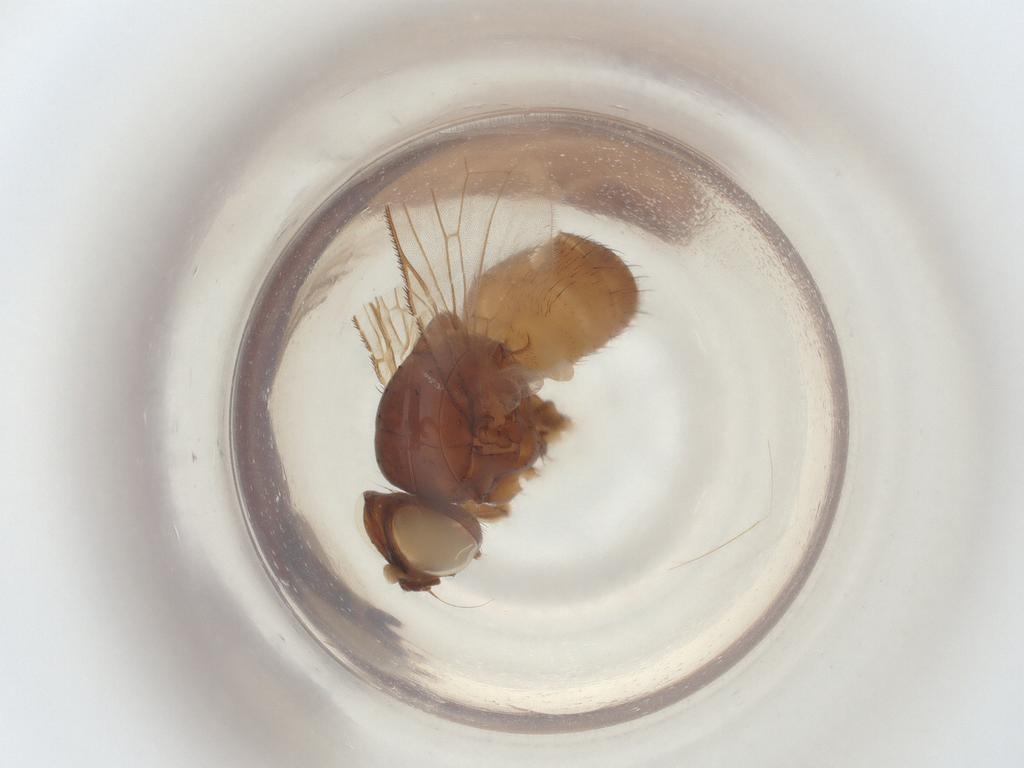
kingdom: Animalia
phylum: Arthropoda
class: Insecta
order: Diptera
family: Muscidae
